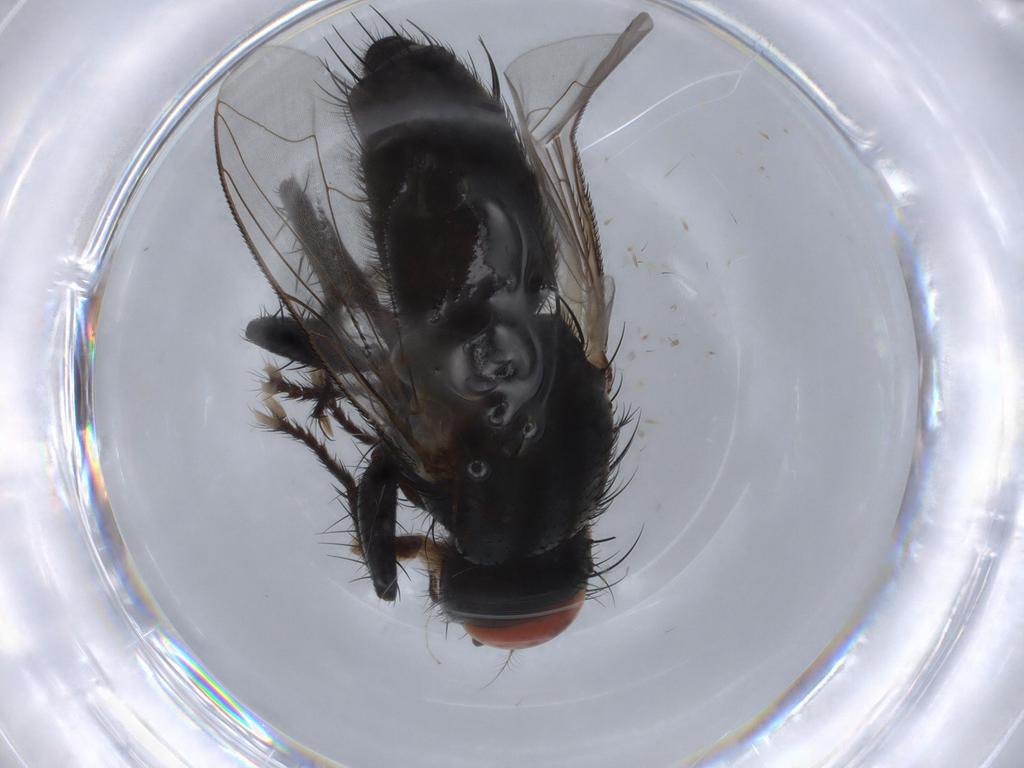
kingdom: Animalia
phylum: Arthropoda
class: Insecta
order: Diptera
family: Sarcophagidae
